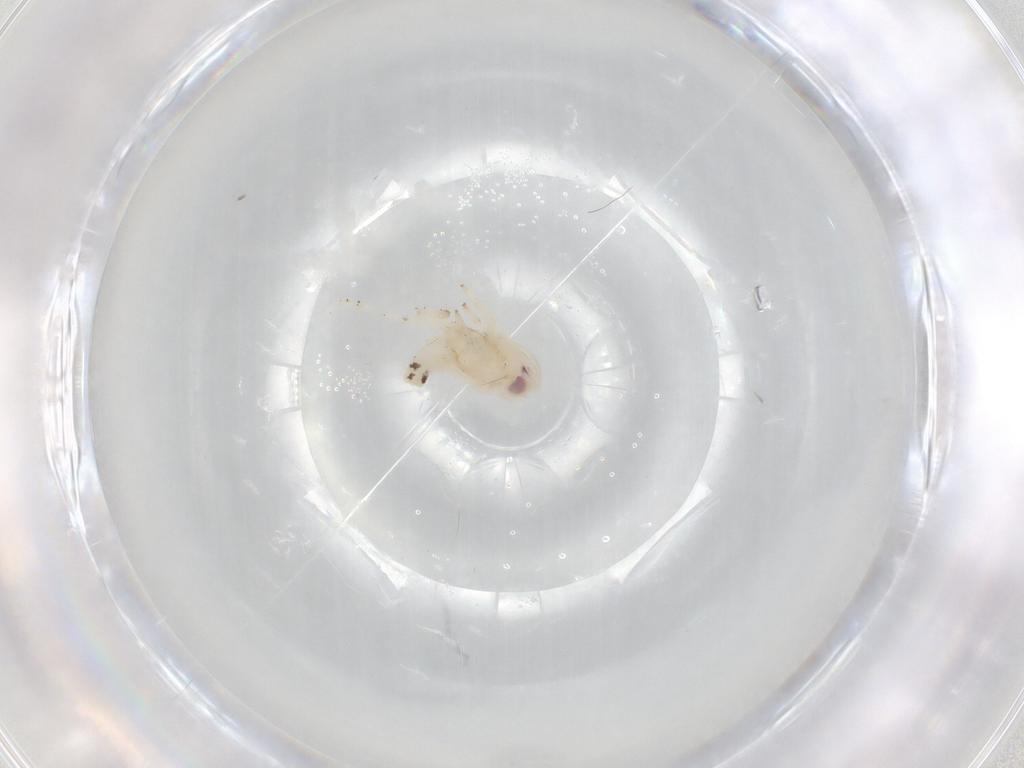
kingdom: Animalia
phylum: Arthropoda
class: Insecta
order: Hemiptera
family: Nogodinidae
